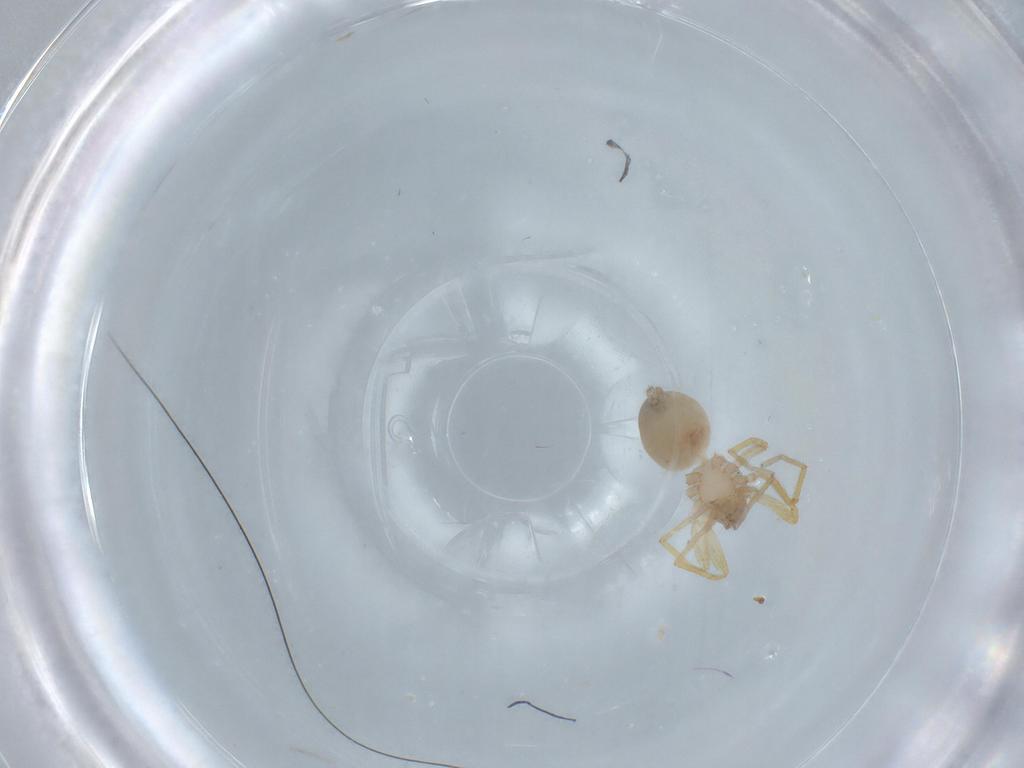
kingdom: Animalia
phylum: Arthropoda
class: Arachnida
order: Araneae
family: Oonopidae
